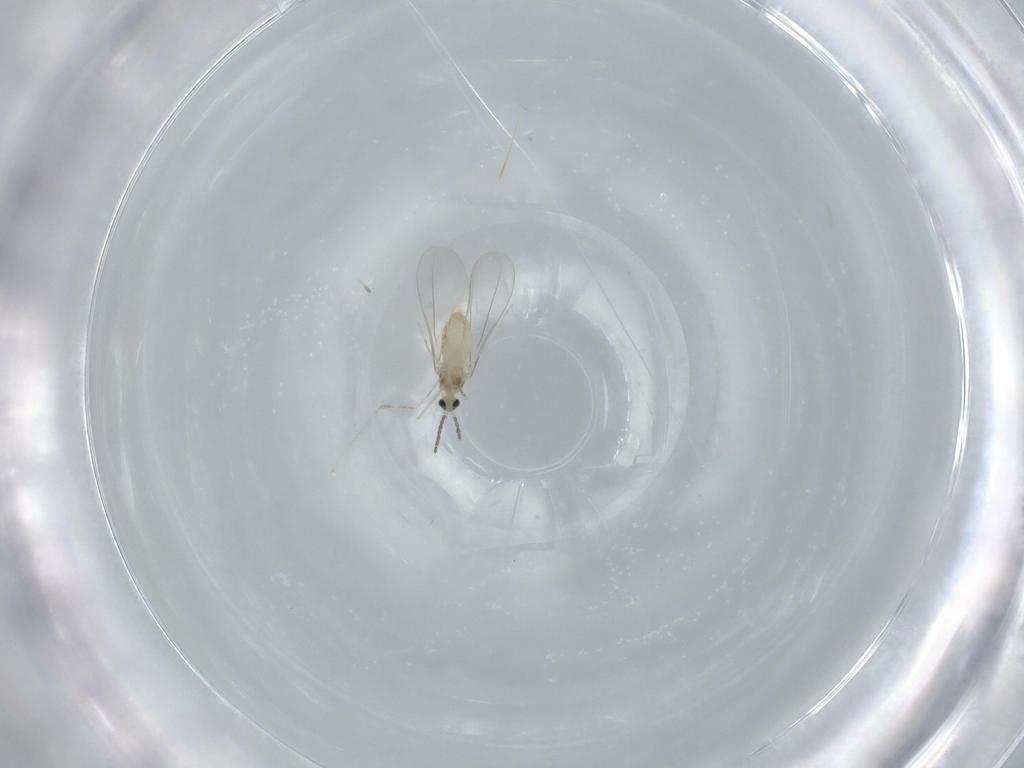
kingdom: Animalia
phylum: Arthropoda
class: Insecta
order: Diptera
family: Cecidomyiidae
